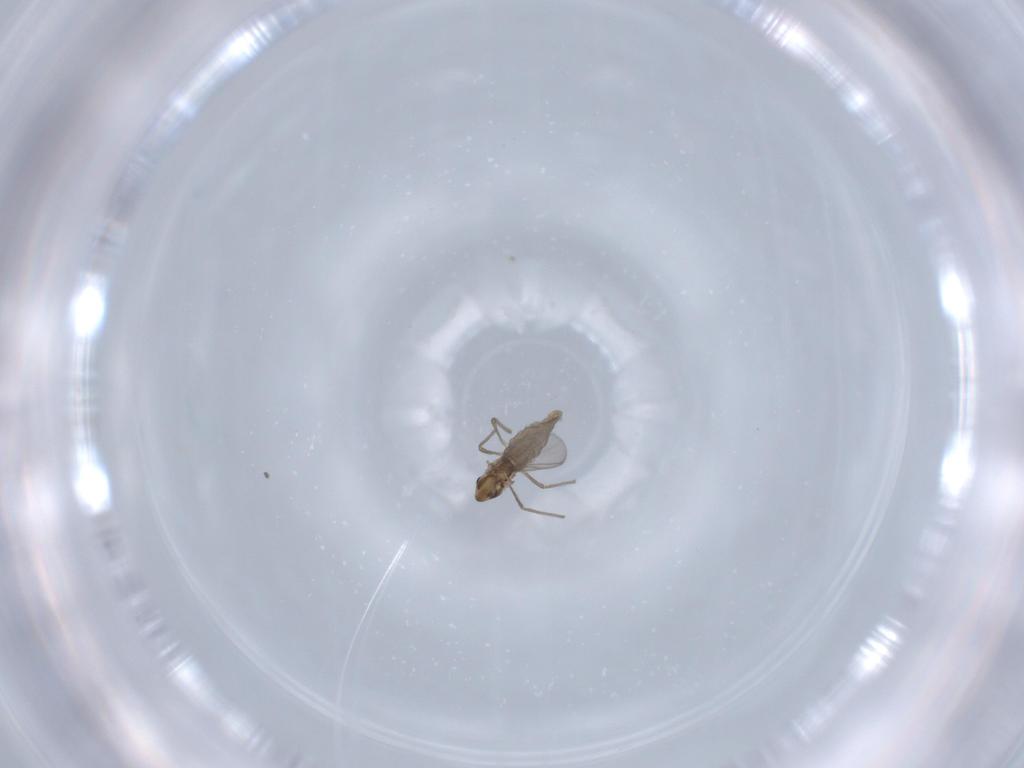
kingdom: Animalia
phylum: Arthropoda
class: Insecta
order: Diptera
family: Chironomidae
